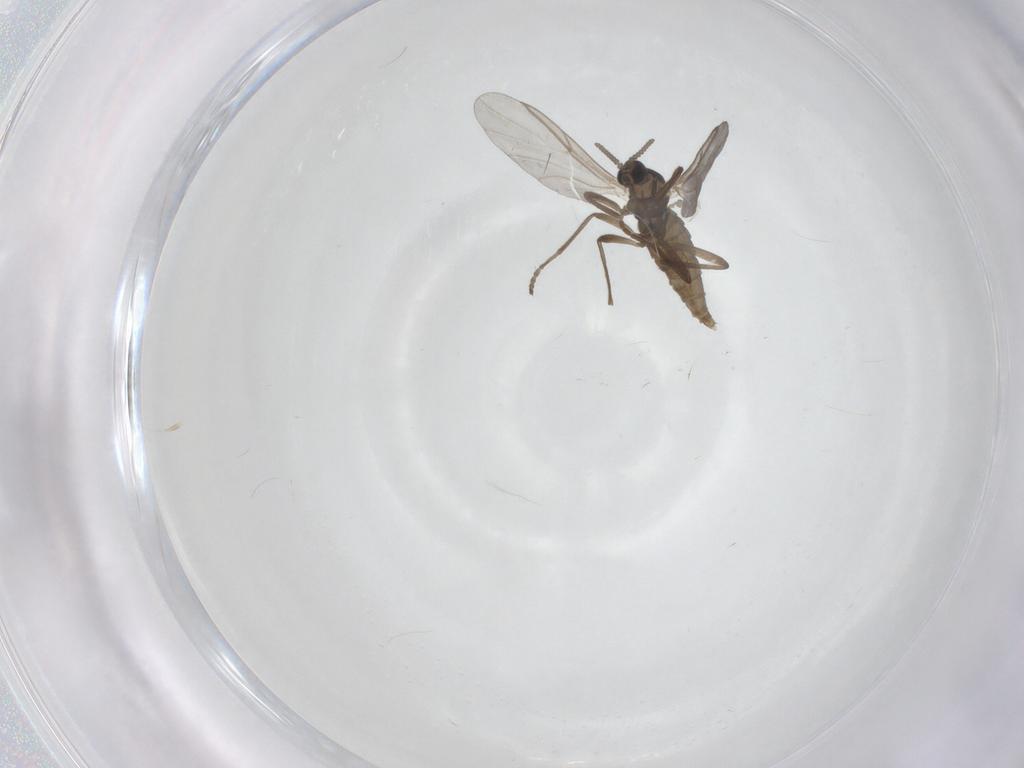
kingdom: Animalia
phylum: Arthropoda
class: Insecta
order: Diptera
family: Cecidomyiidae
